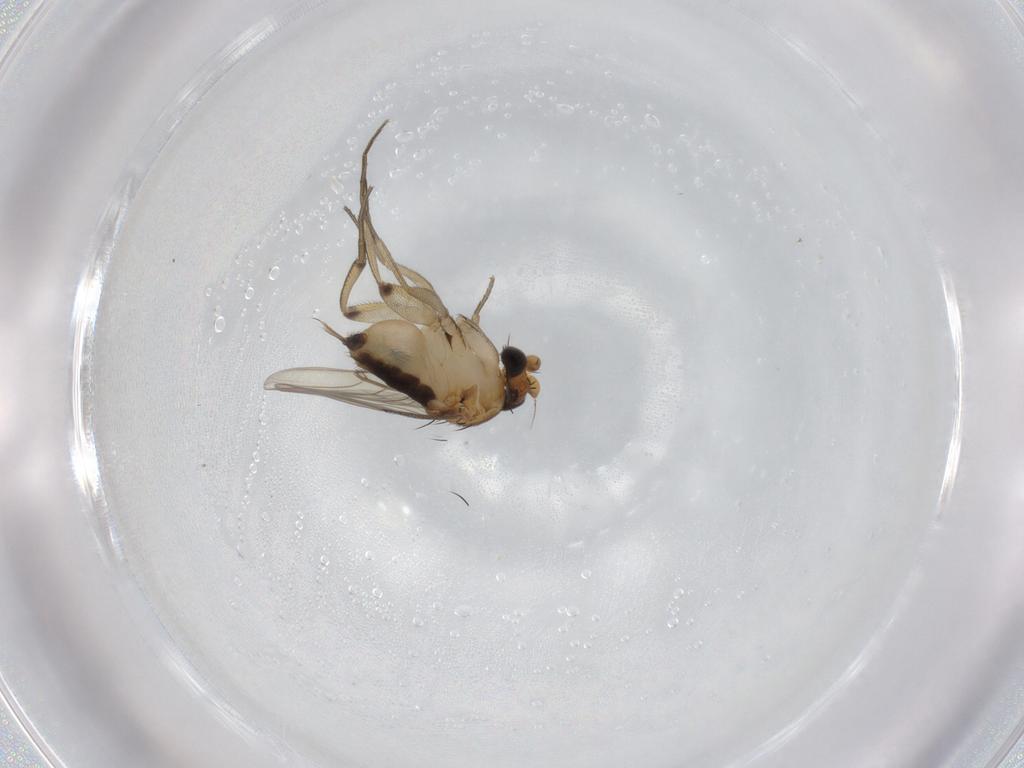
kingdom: Animalia
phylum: Arthropoda
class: Insecta
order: Diptera
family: Phoridae
